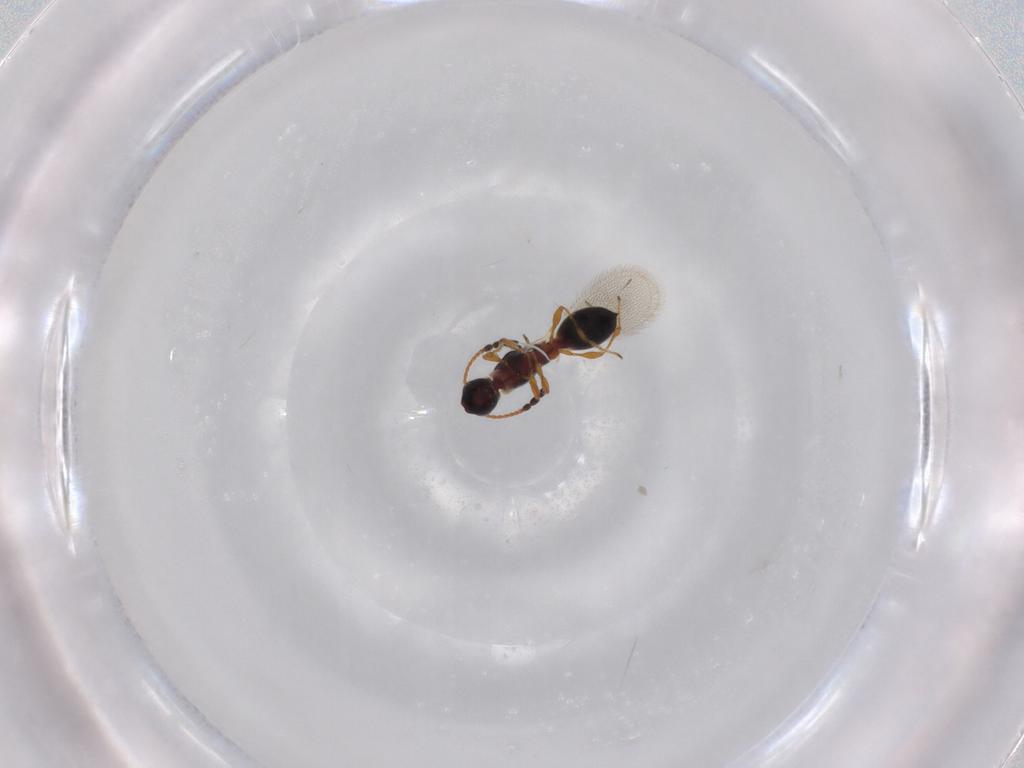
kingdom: Animalia
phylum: Arthropoda
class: Insecta
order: Hymenoptera
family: Diapriidae
